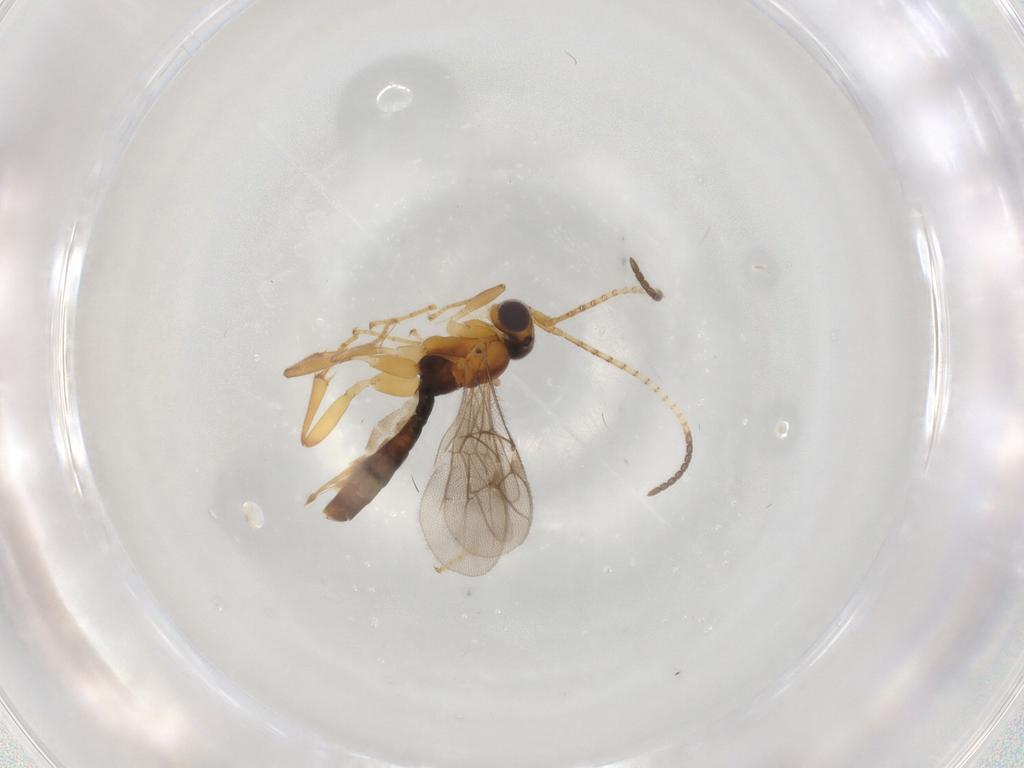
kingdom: Animalia
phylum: Arthropoda
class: Insecta
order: Hymenoptera
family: Ichneumonidae
